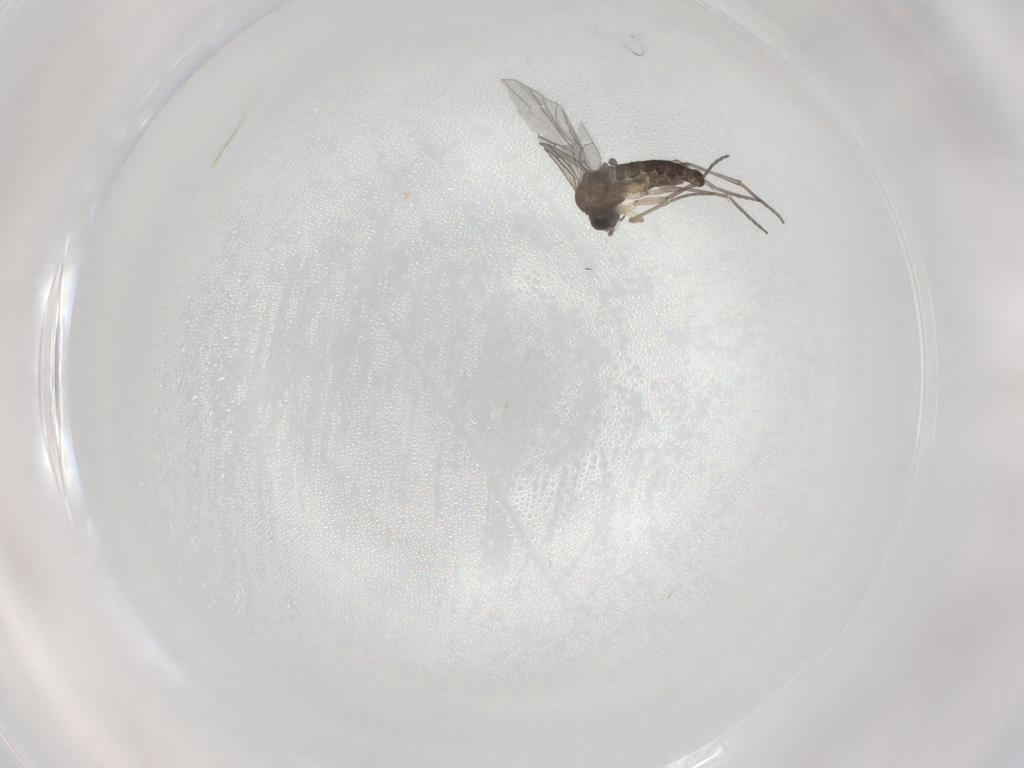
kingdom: Animalia
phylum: Arthropoda
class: Insecta
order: Diptera
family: Sciaridae
